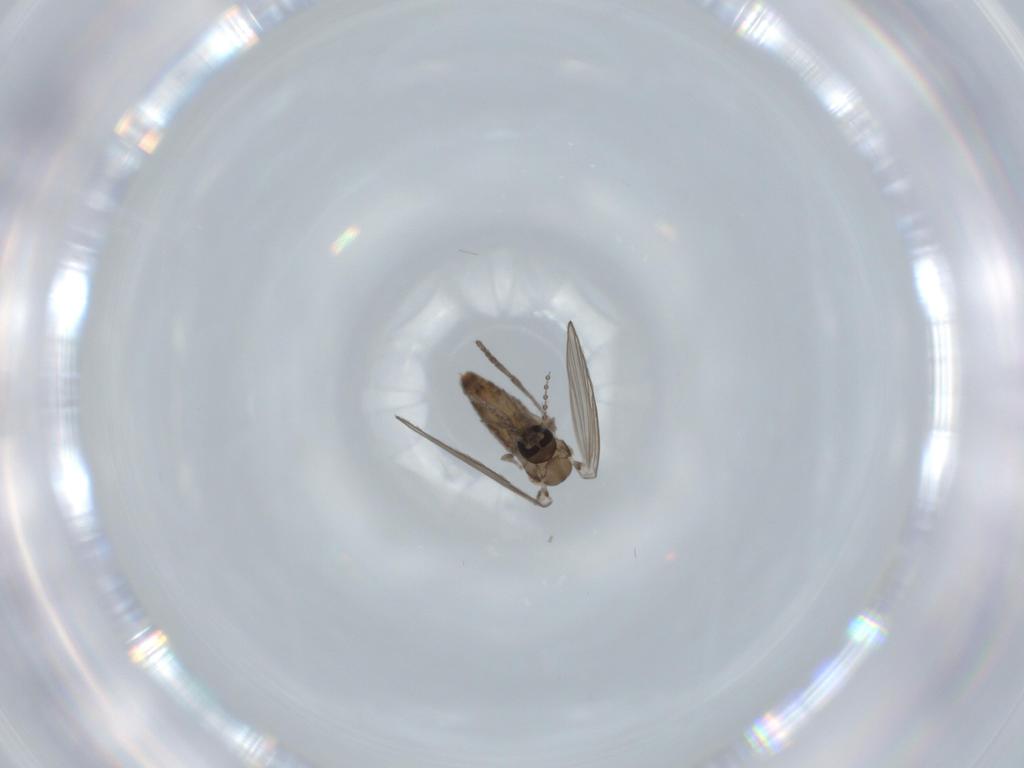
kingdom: Animalia
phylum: Arthropoda
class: Insecta
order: Diptera
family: Psychodidae
